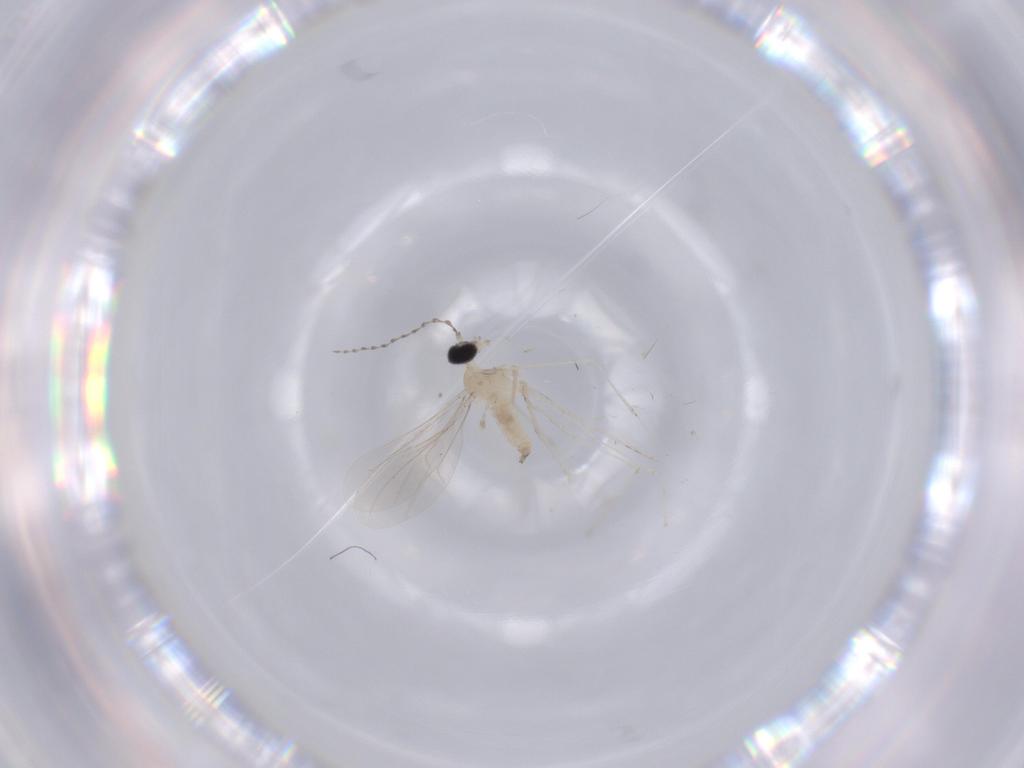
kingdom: Animalia
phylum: Arthropoda
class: Insecta
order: Diptera
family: Cecidomyiidae
